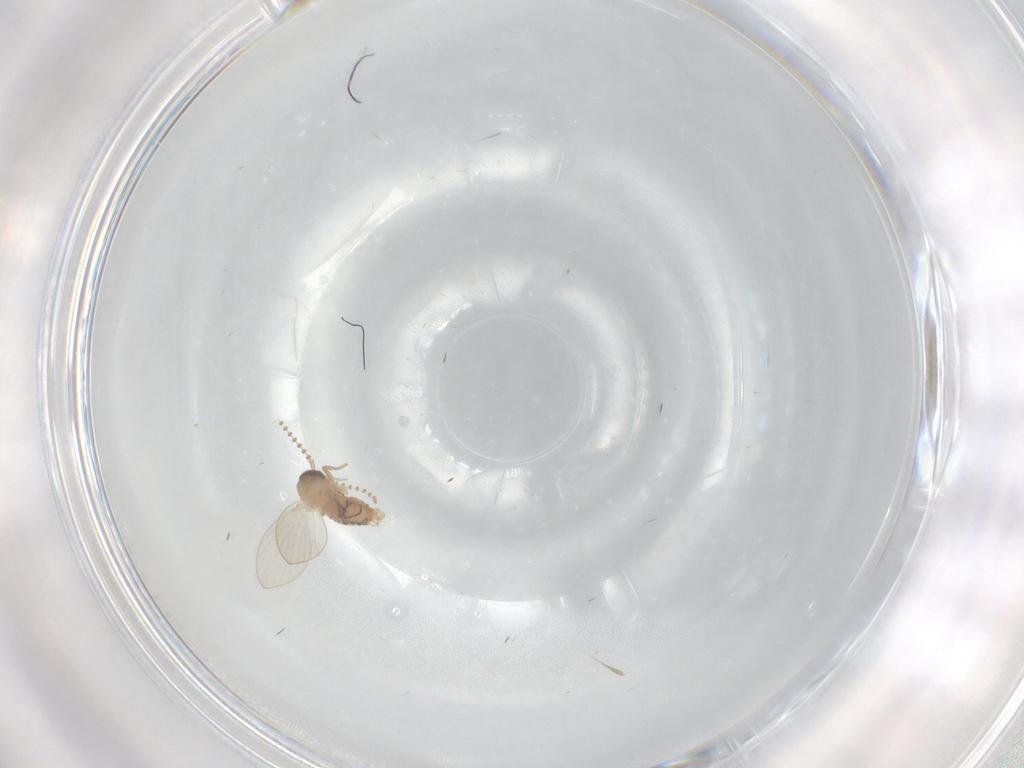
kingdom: Animalia
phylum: Arthropoda
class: Insecta
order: Diptera
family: Psychodidae
